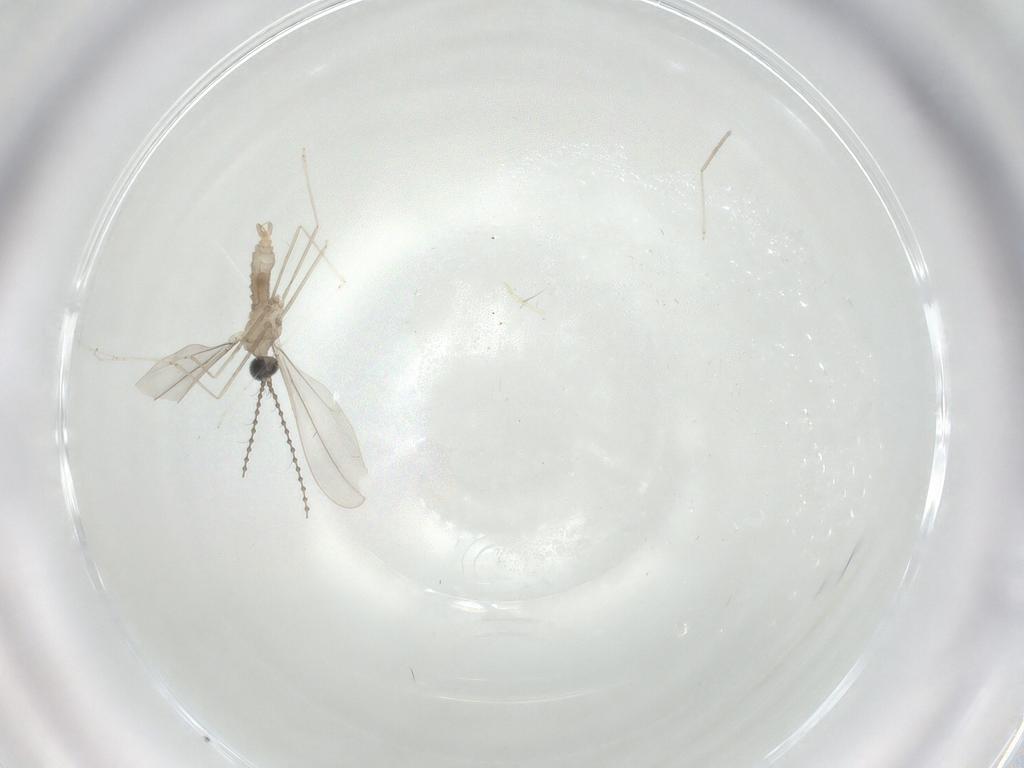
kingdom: Animalia
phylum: Arthropoda
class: Insecta
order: Diptera
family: Cecidomyiidae
